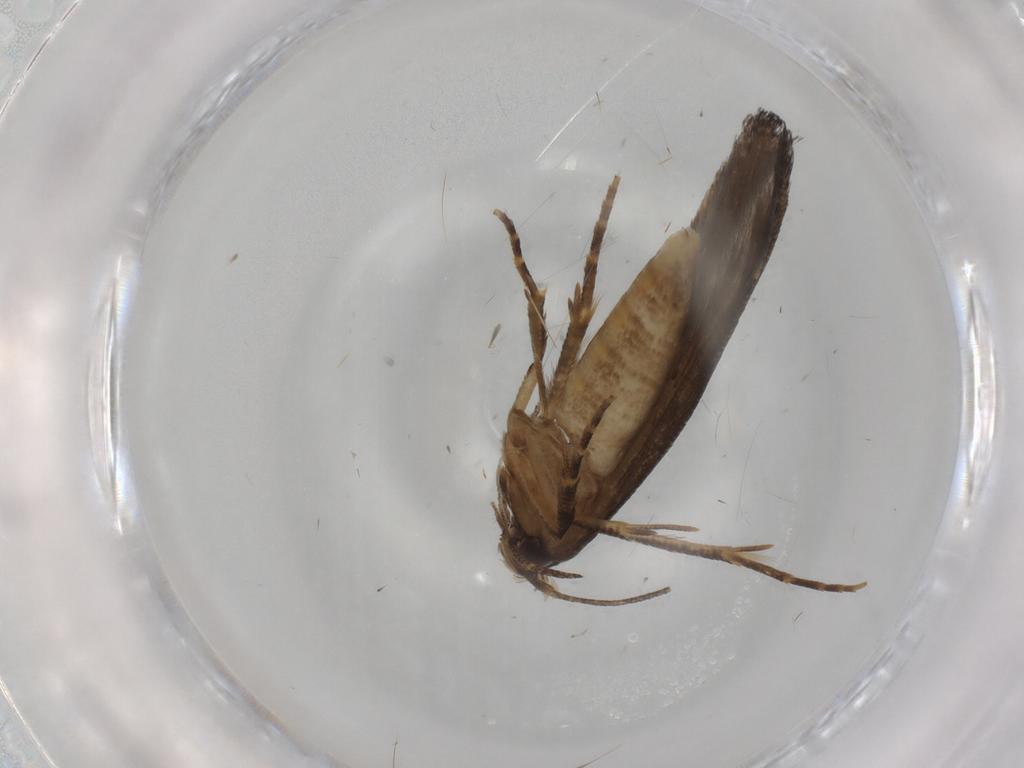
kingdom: Animalia
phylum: Arthropoda
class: Insecta
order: Lepidoptera
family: Cosmopterigidae
